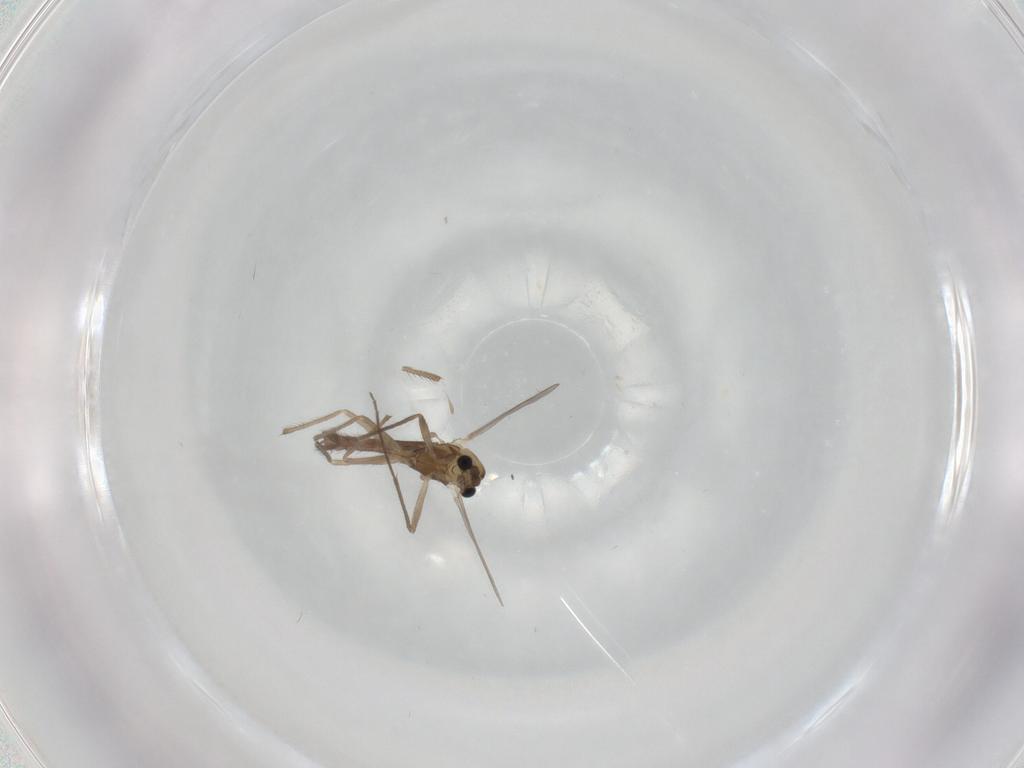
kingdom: Animalia
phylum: Arthropoda
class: Insecta
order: Diptera
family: Chironomidae
